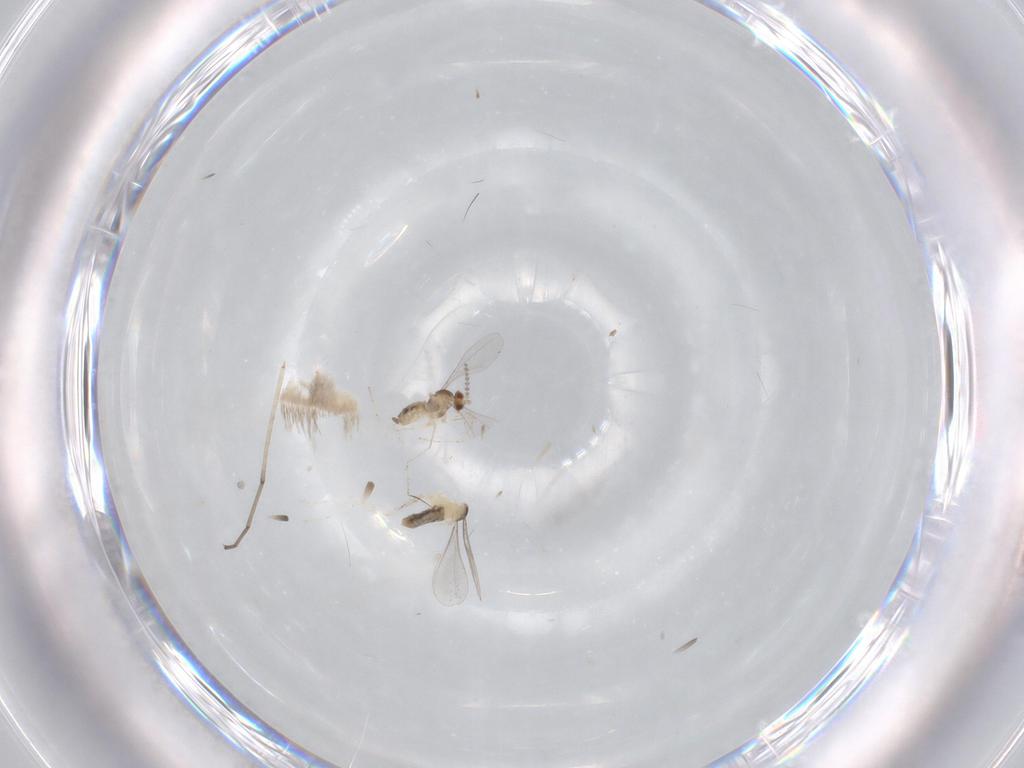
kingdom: Animalia
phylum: Arthropoda
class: Insecta
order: Diptera
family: Cecidomyiidae
